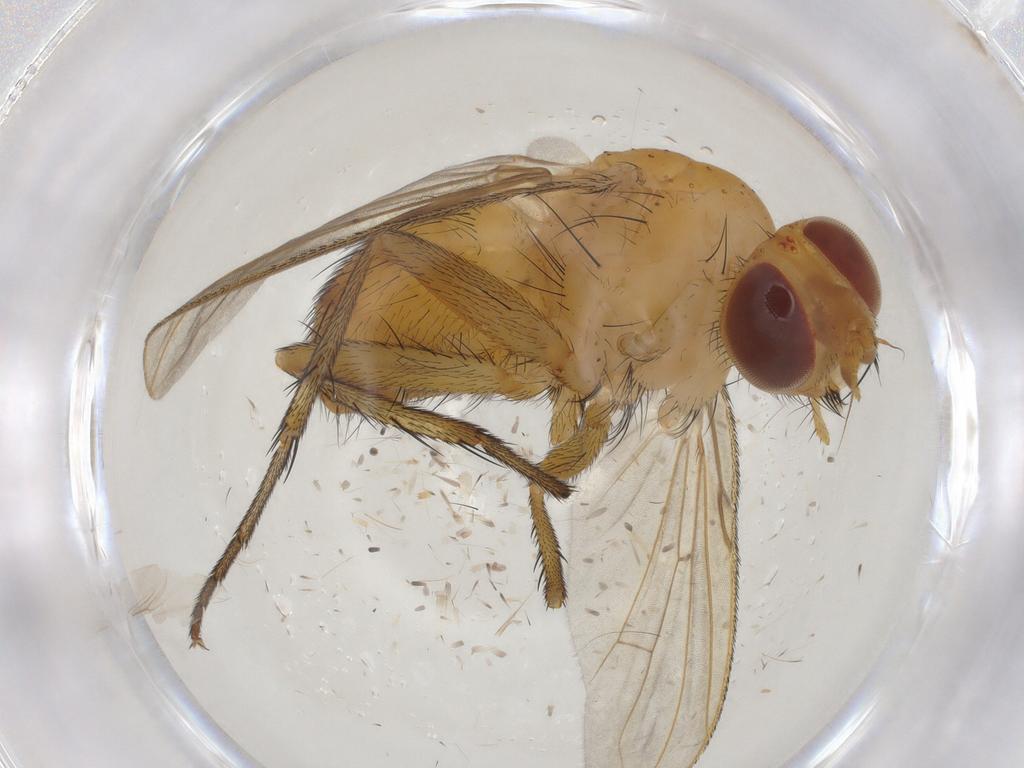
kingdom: Animalia
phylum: Arthropoda
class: Insecta
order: Diptera
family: Tachinidae
